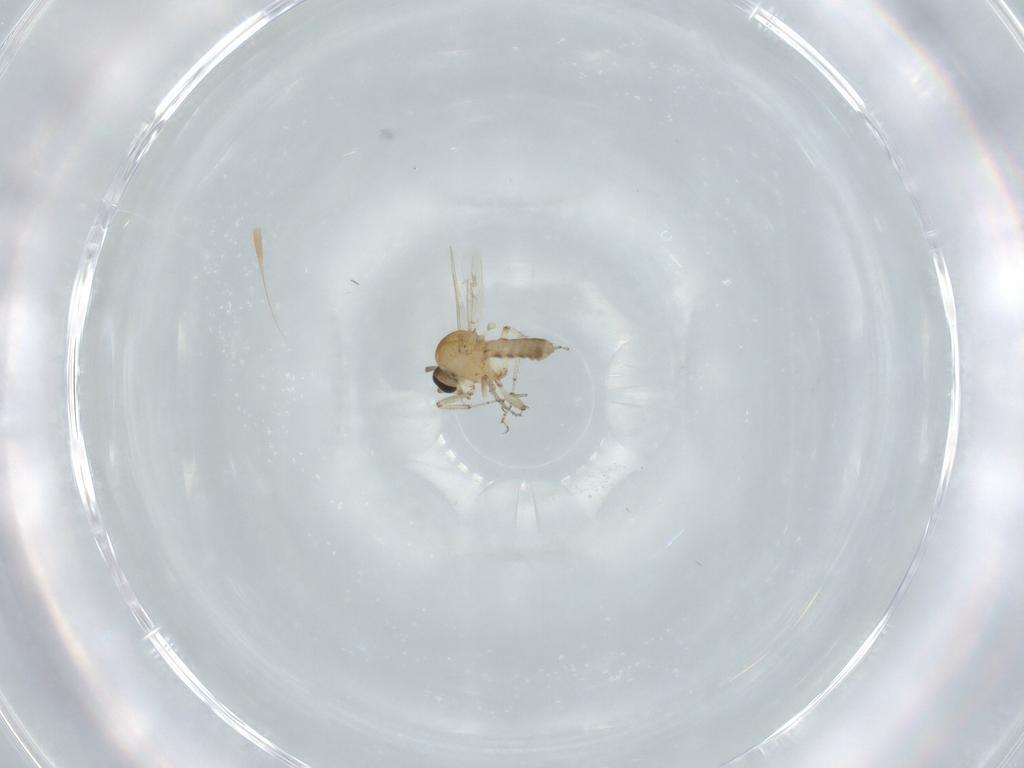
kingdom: Animalia
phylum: Arthropoda
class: Insecta
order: Diptera
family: Ceratopogonidae
